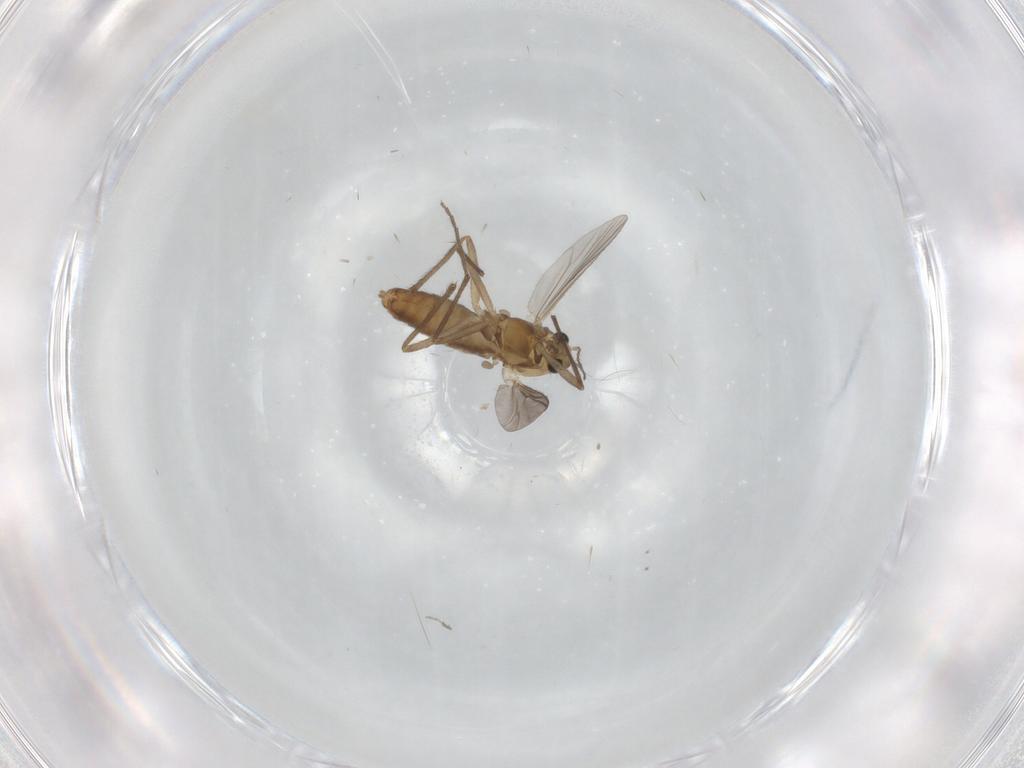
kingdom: Animalia
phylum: Arthropoda
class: Insecta
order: Diptera
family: Chironomidae
